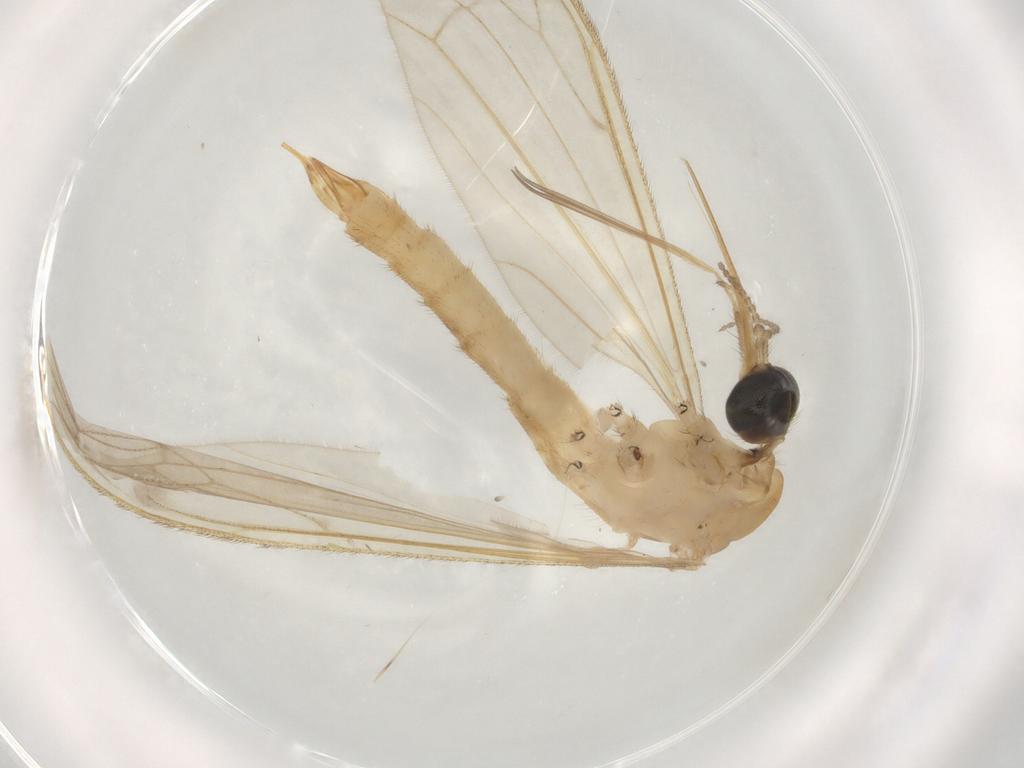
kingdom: Animalia
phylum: Arthropoda
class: Insecta
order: Diptera
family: Limoniidae
